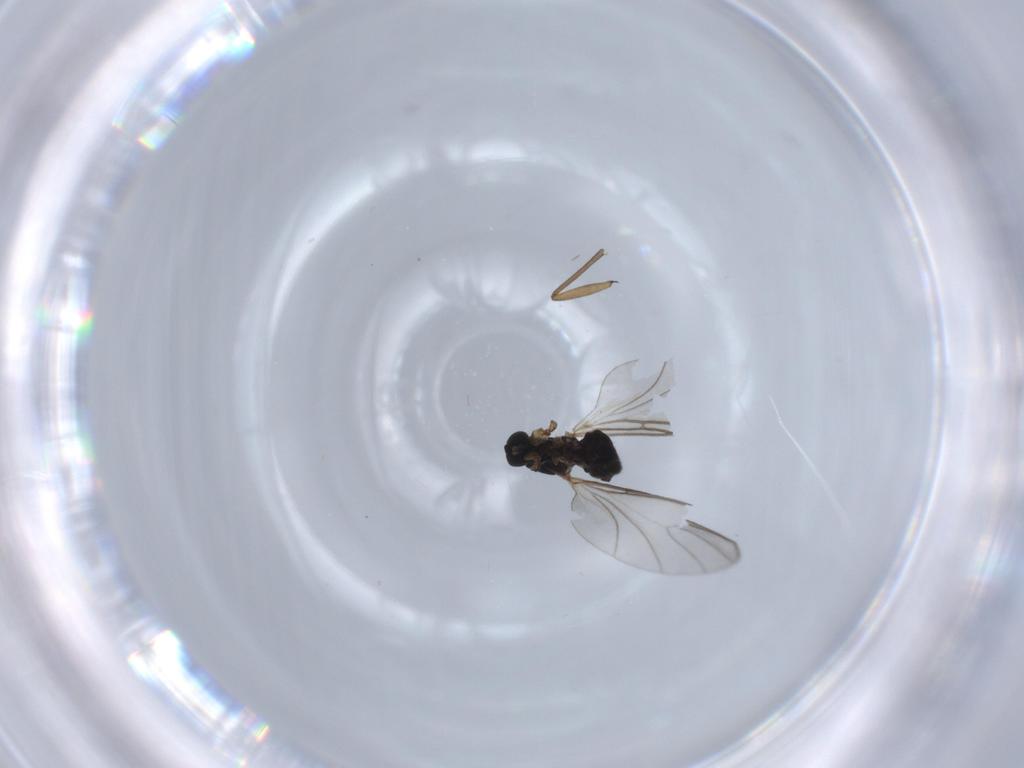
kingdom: Animalia
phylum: Arthropoda
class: Insecta
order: Diptera
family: Sciaridae
